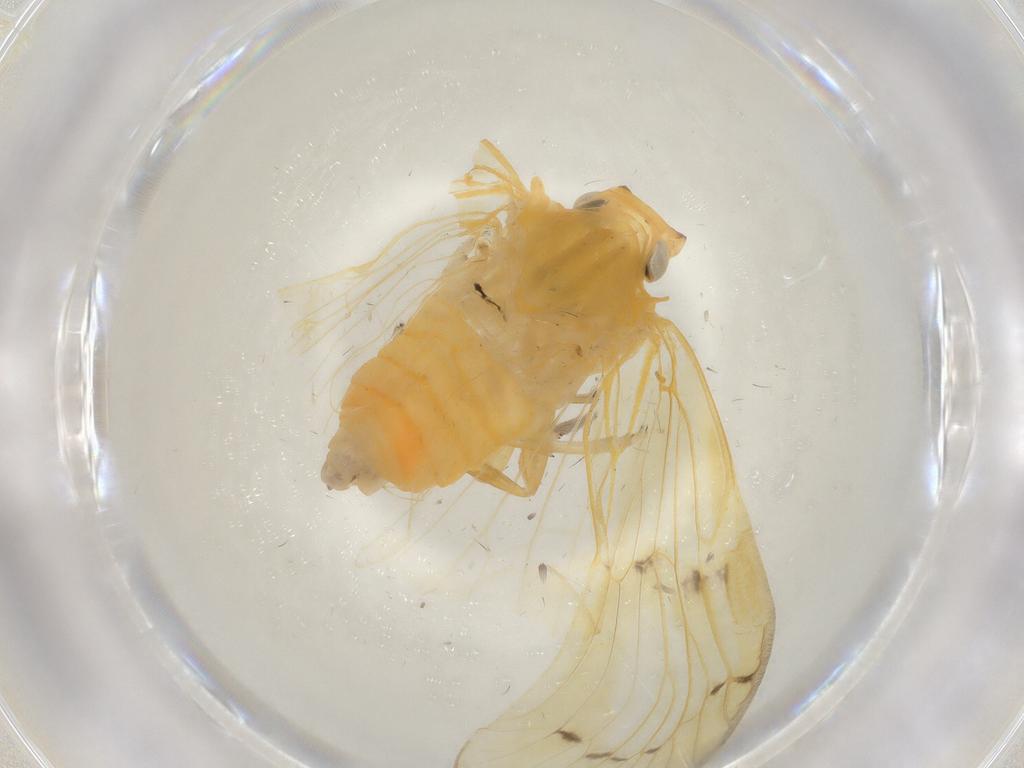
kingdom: Animalia
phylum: Arthropoda
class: Insecta
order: Hemiptera
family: Cixiidae
